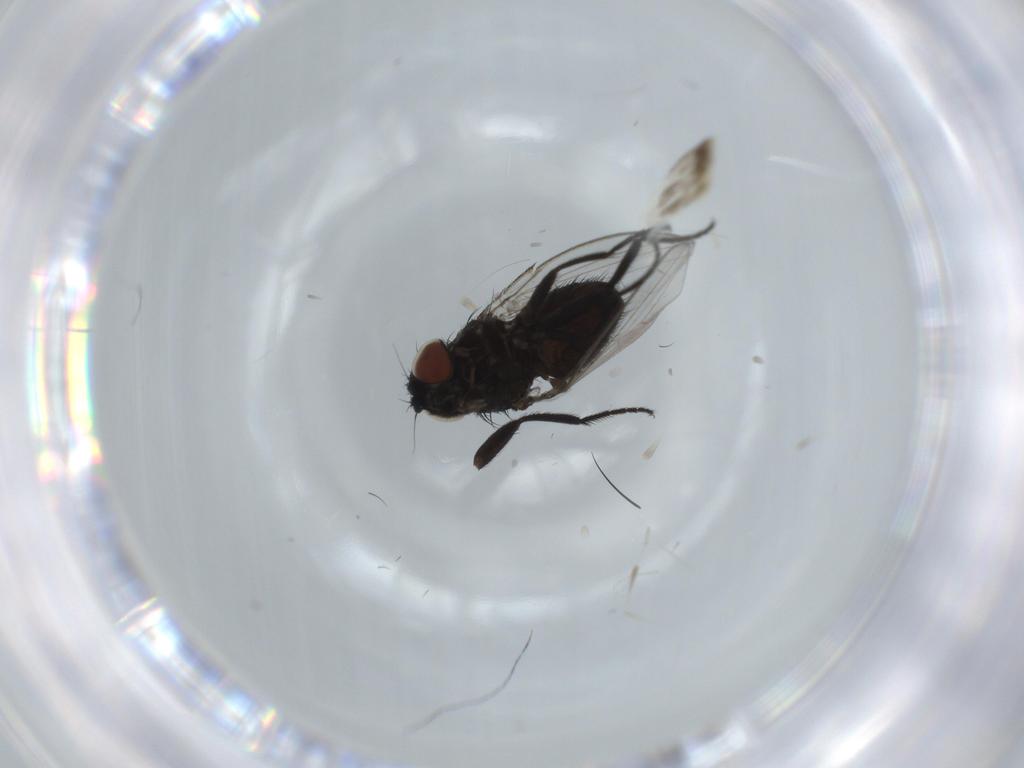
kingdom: Animalia
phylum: Arthropoda
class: Insecta
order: Diptera
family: Milichiidae
